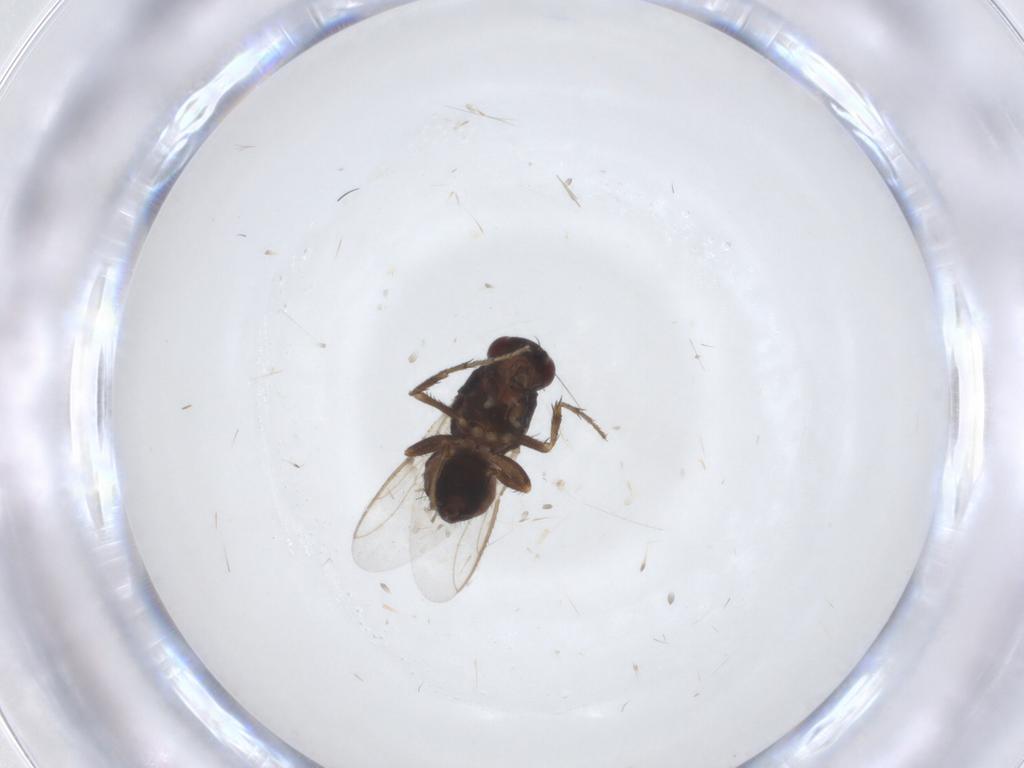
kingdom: Animalia
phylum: Arthropoda
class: Insecta
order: Diptera
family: Sphaeroceridae
